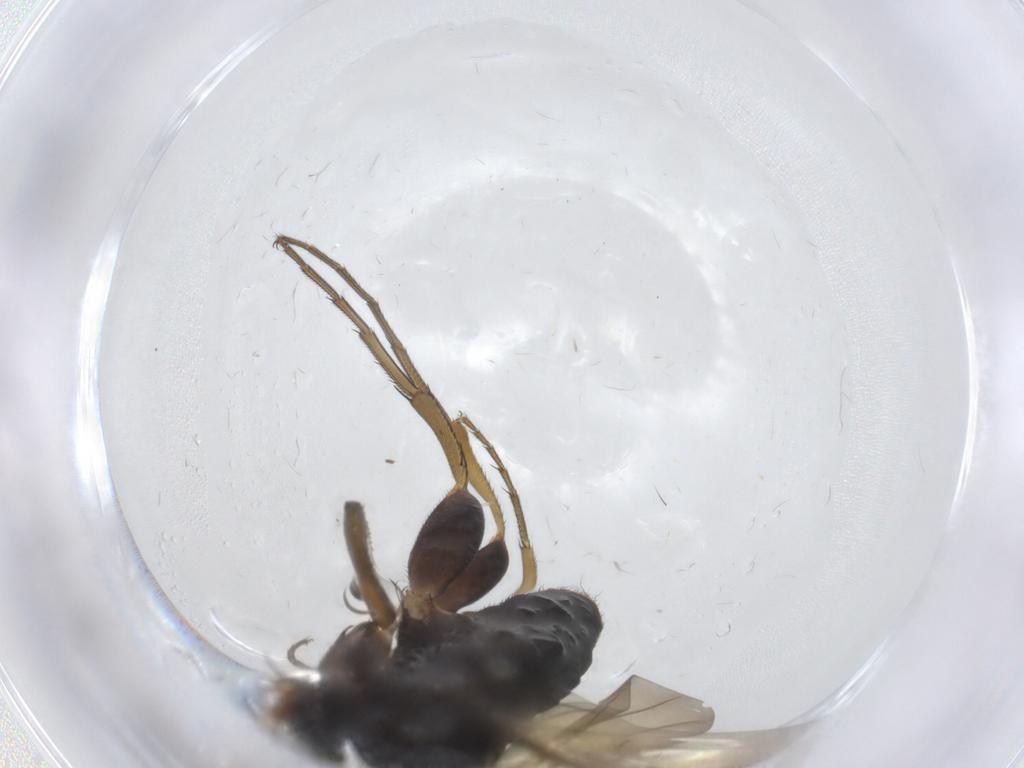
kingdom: Animalia
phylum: Arthropoda
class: Insecta
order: Diptera
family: Phoridae
